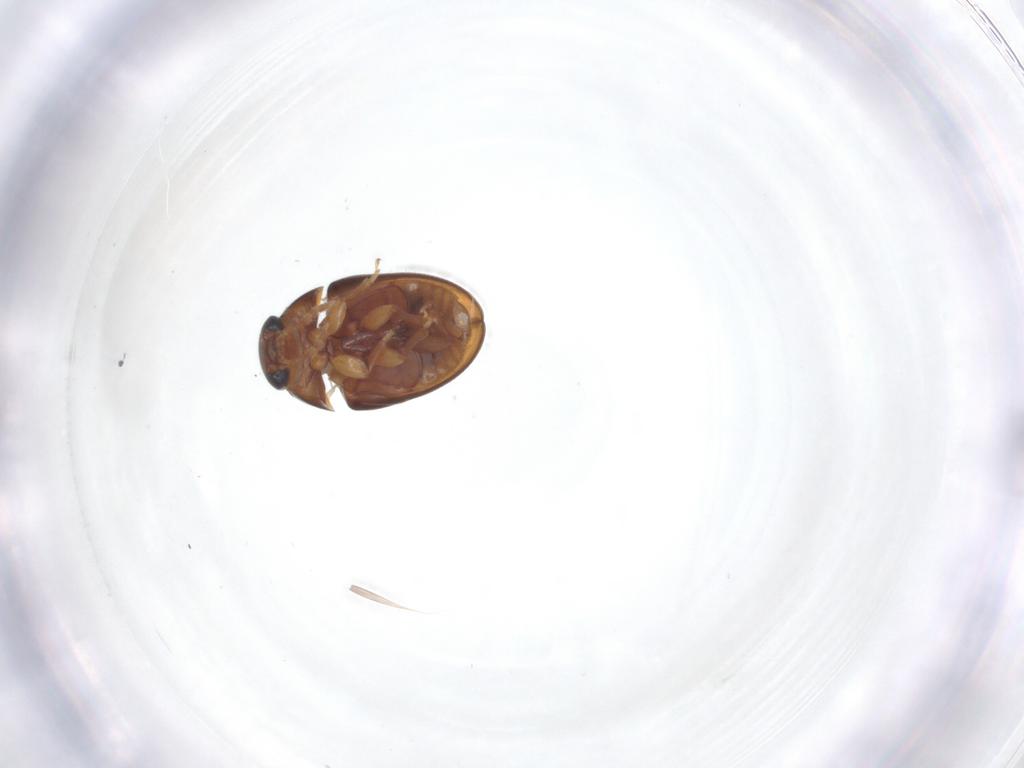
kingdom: Animalia
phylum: Arthropoda
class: Insecta
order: Coleoptera
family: Phalacridae
